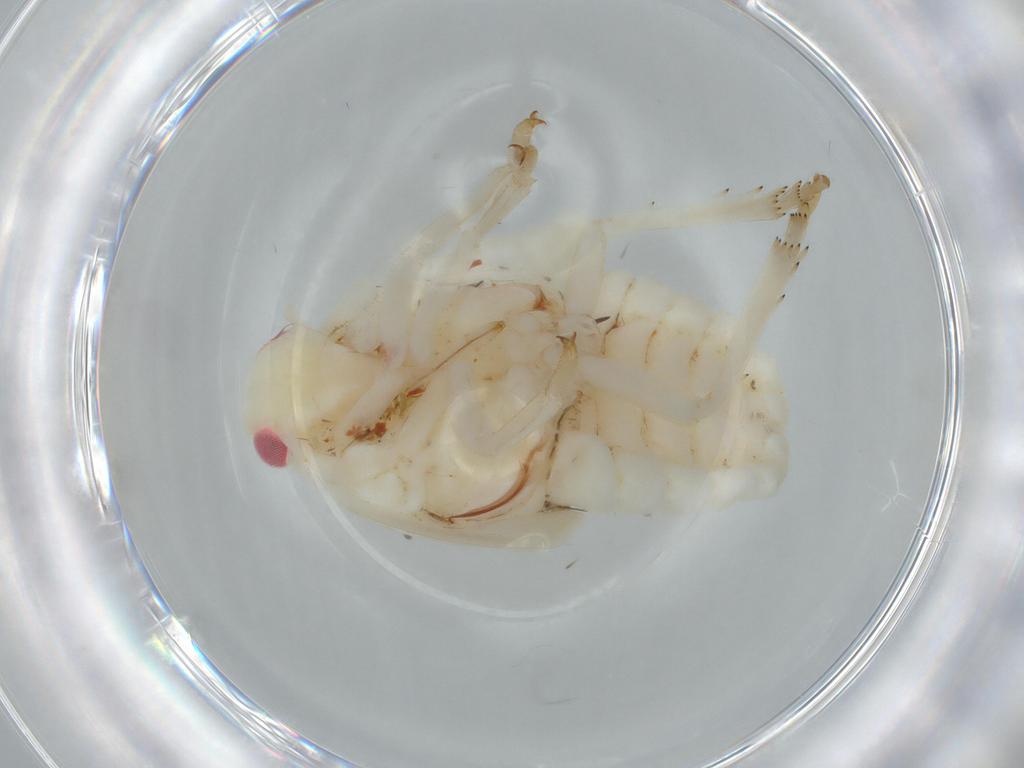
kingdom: Animalia
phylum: Arthropoda
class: Insecta
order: Hemiptera
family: Flatidae
